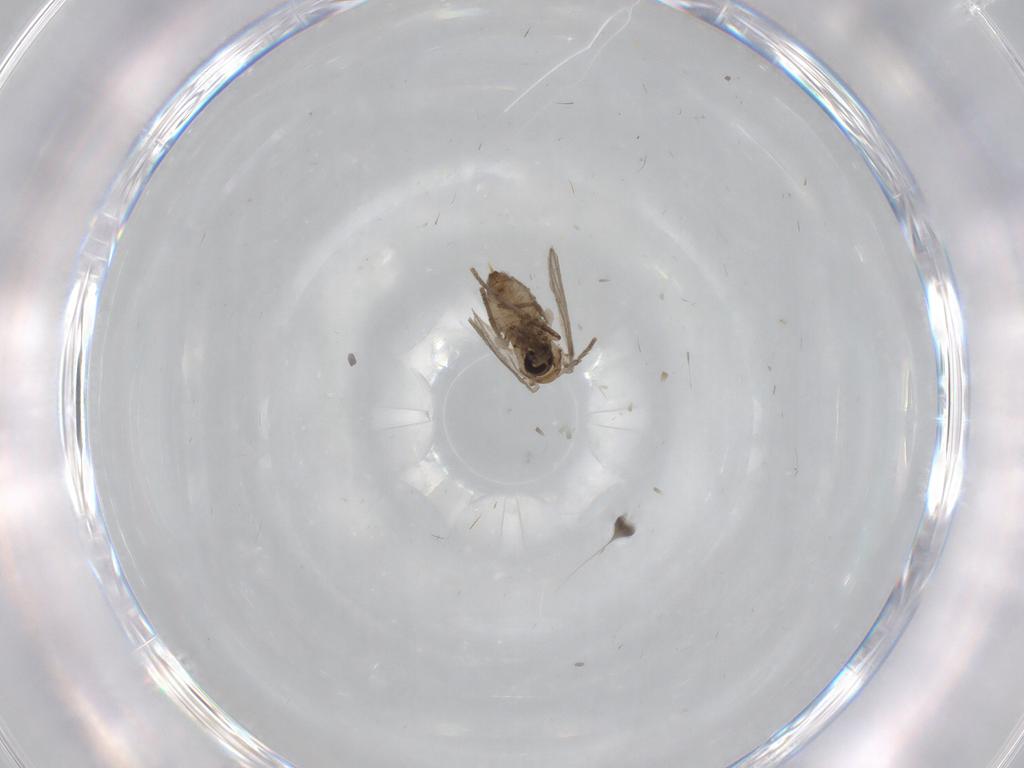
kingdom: Animalia
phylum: Arthropoda
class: Insecta
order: Diptera
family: Psychodidae
